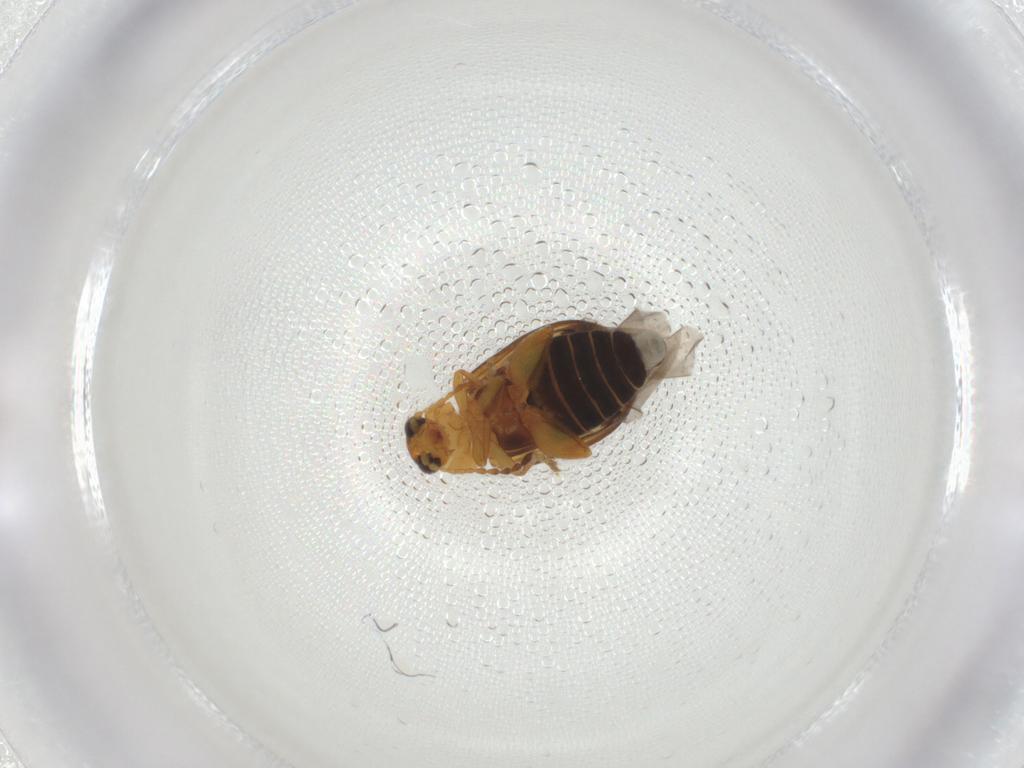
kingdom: Animalia
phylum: Arthropoda
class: Insecta
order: Coleoptera
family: Chrysomelidae
